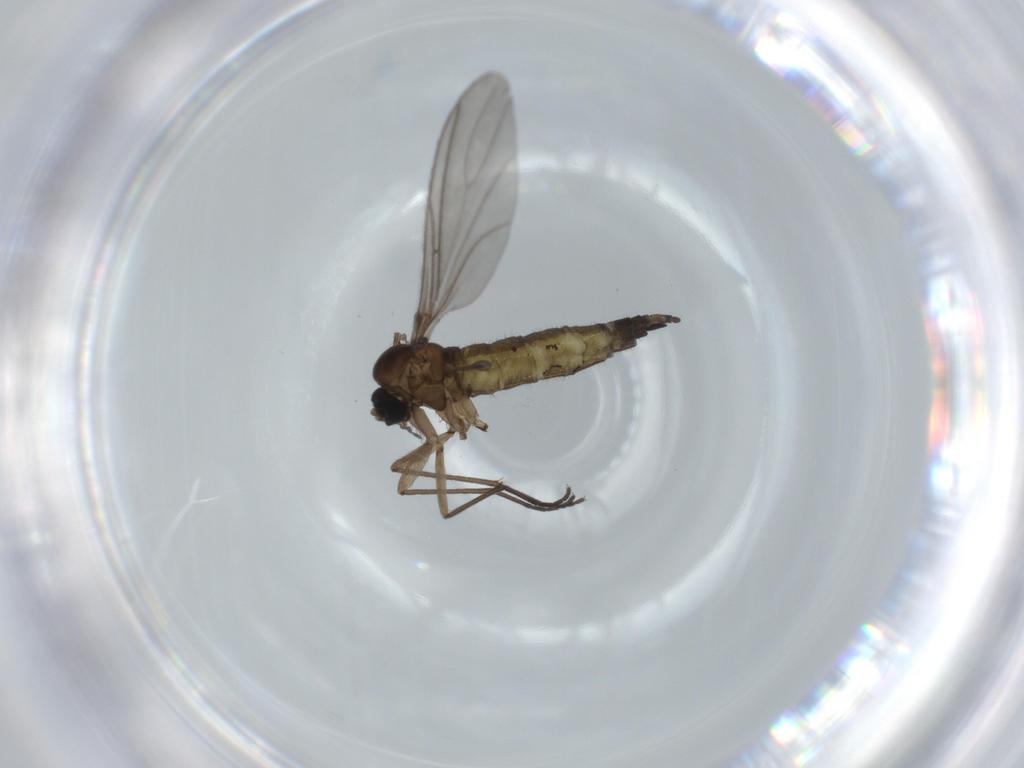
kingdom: Animalia
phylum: Arthropoda
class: Insecta
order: Diptera
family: Sciaridae
